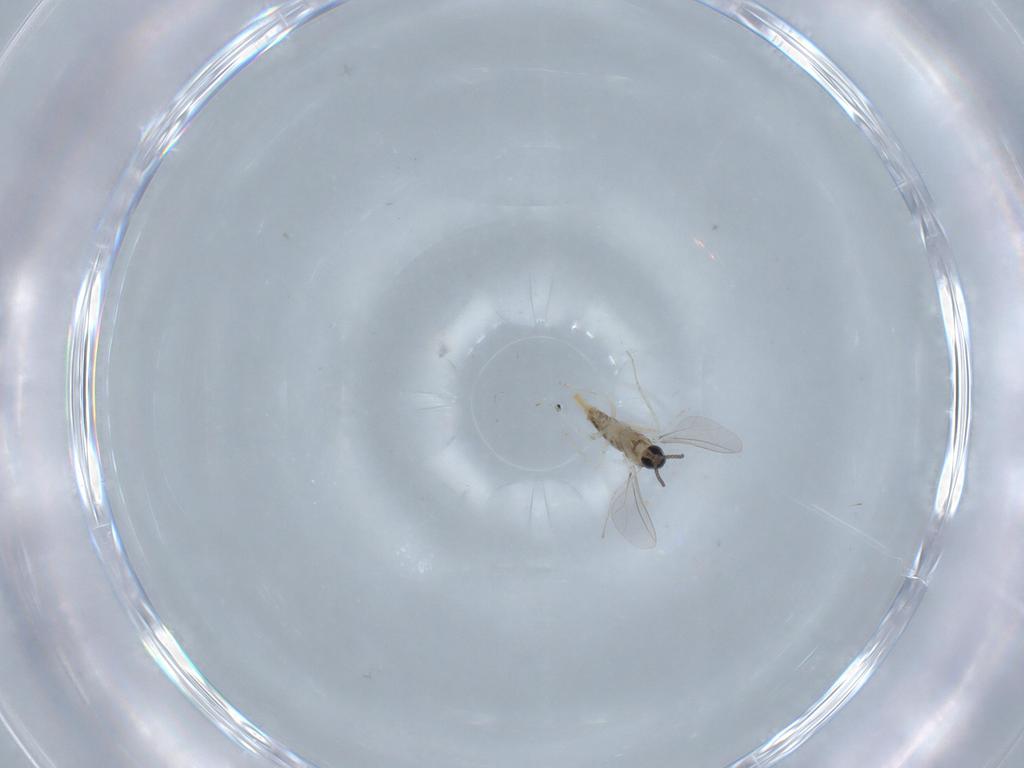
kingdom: Animalia
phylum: Arthropoda
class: Insecta
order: Diptera
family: Cecidomyiidae
